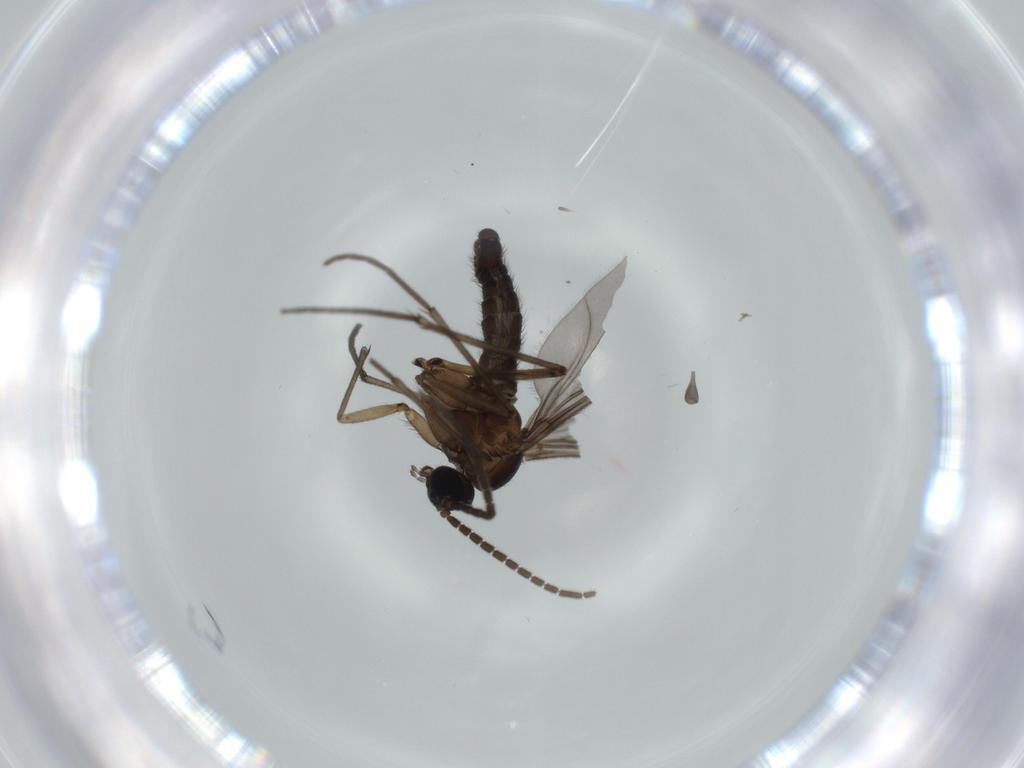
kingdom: Animalia
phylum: Arthropoda
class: Insecta
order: Diptera
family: Sciaridae
